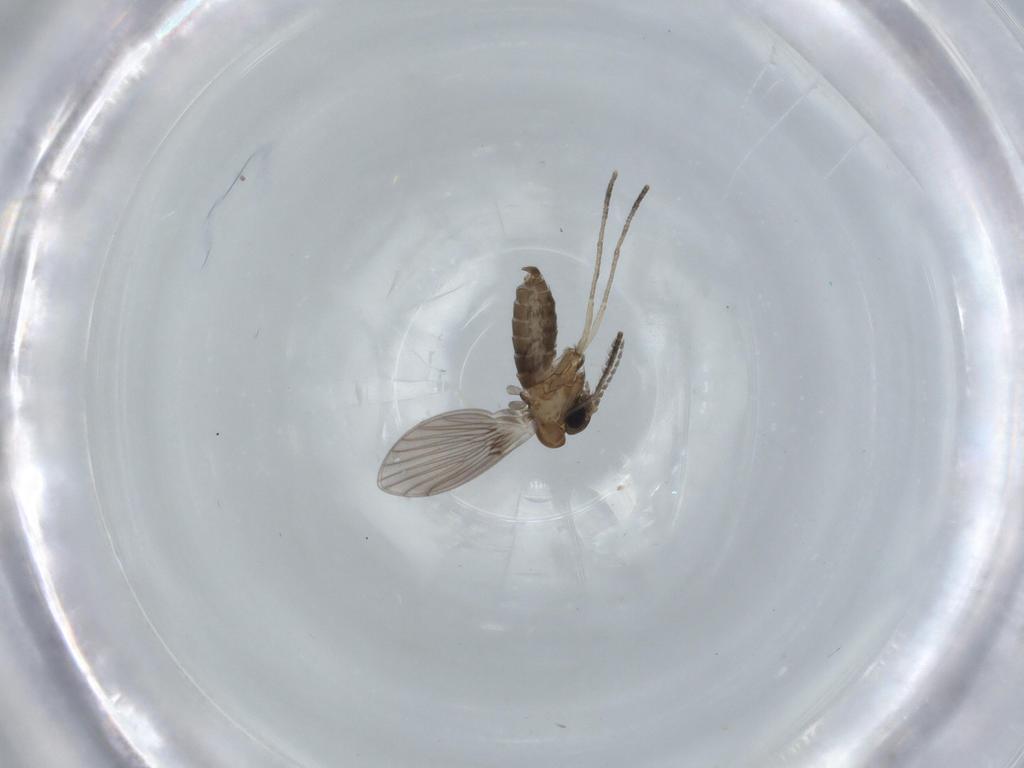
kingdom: Animalia
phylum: Arthropoda
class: Insecta
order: Diptera
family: Psychodidae
